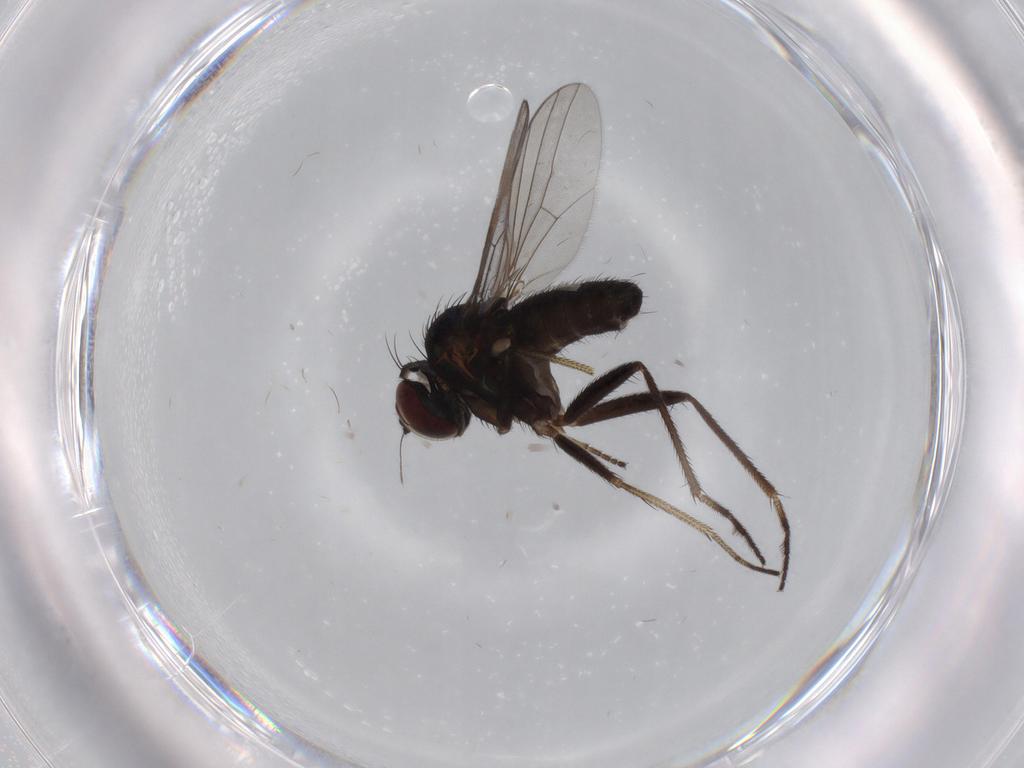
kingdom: Animalia
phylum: Arthropoda
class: Insecta
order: Diptera
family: Dolichopodidae
